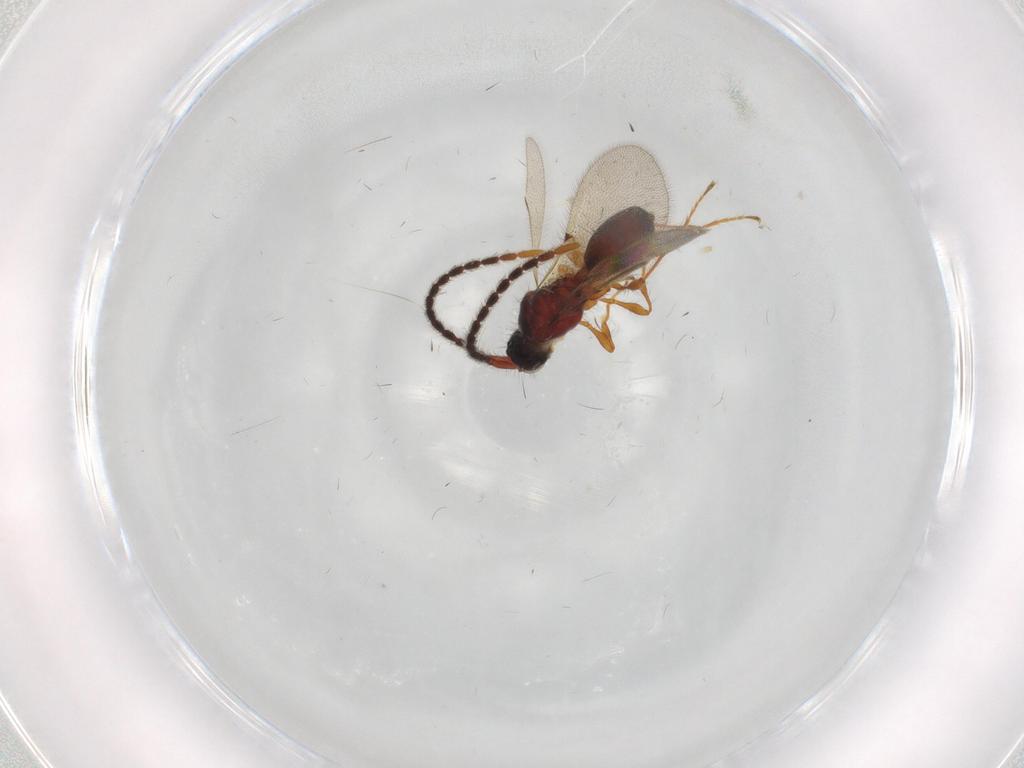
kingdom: Animalia
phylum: Arthropoda
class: Insecta
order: Hymenoptera
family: Diapriidae
